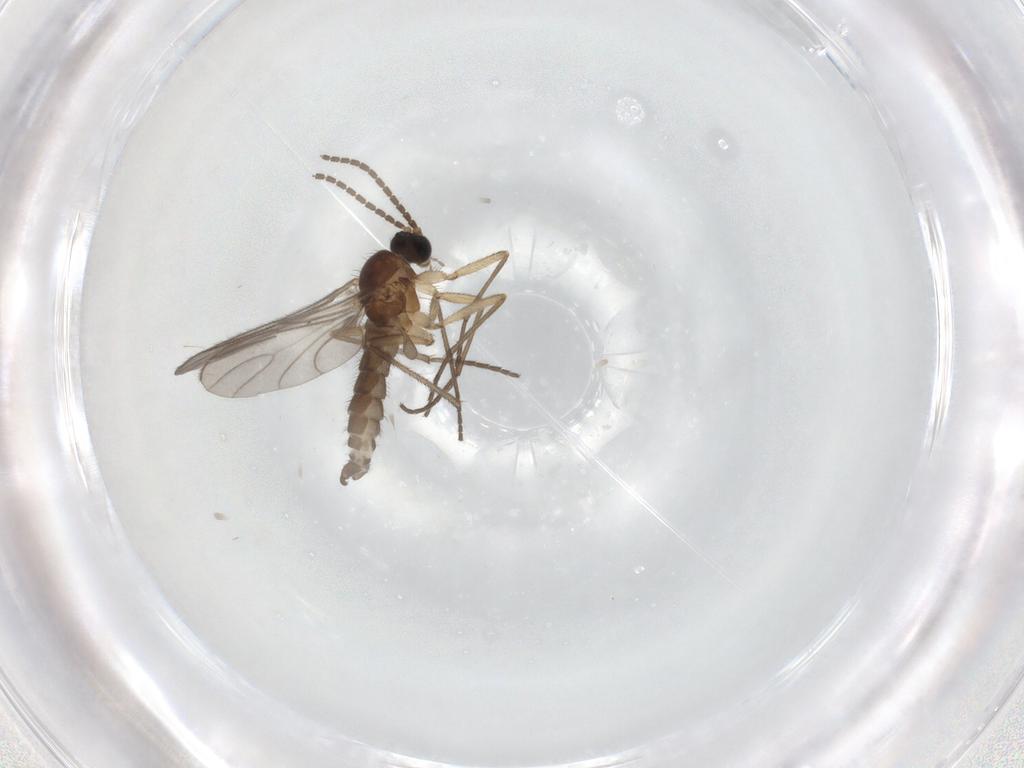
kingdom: Animalia
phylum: Arthropoda
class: Insecta
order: Diptera
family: Sciaridae
